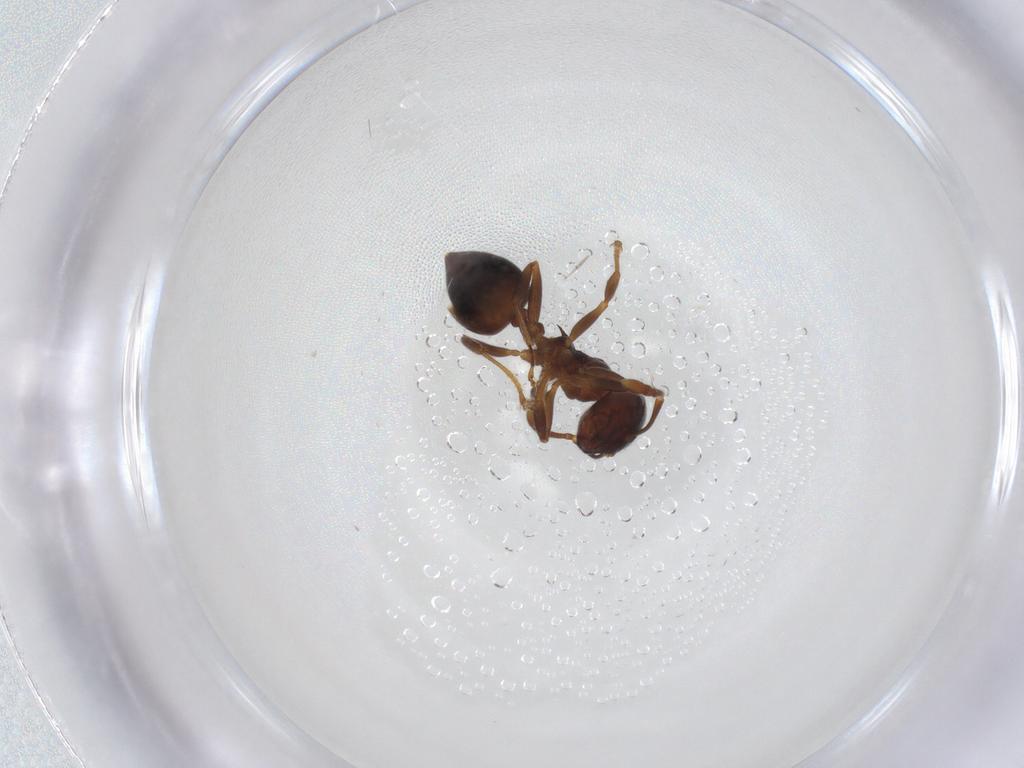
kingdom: Animalia
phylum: Arthropoda
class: Insecta
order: Hymenoptera
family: Formicidae
